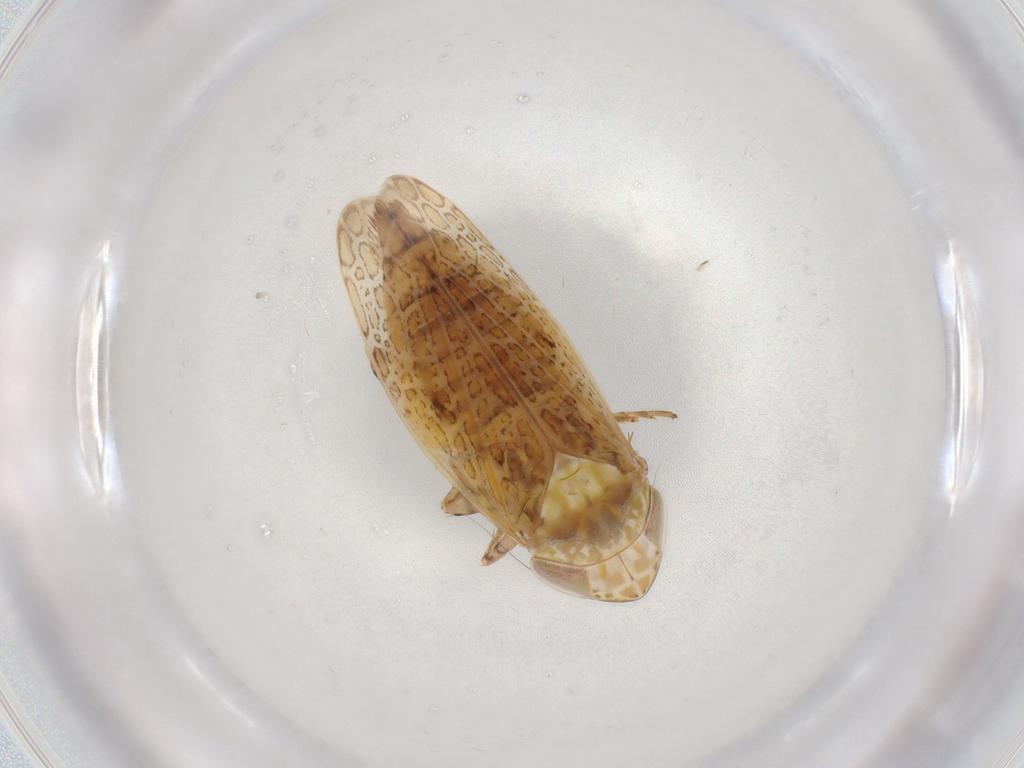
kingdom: Animalia
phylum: Arthropoda
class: Insecta
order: Hemiptera
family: Cicadellidae
